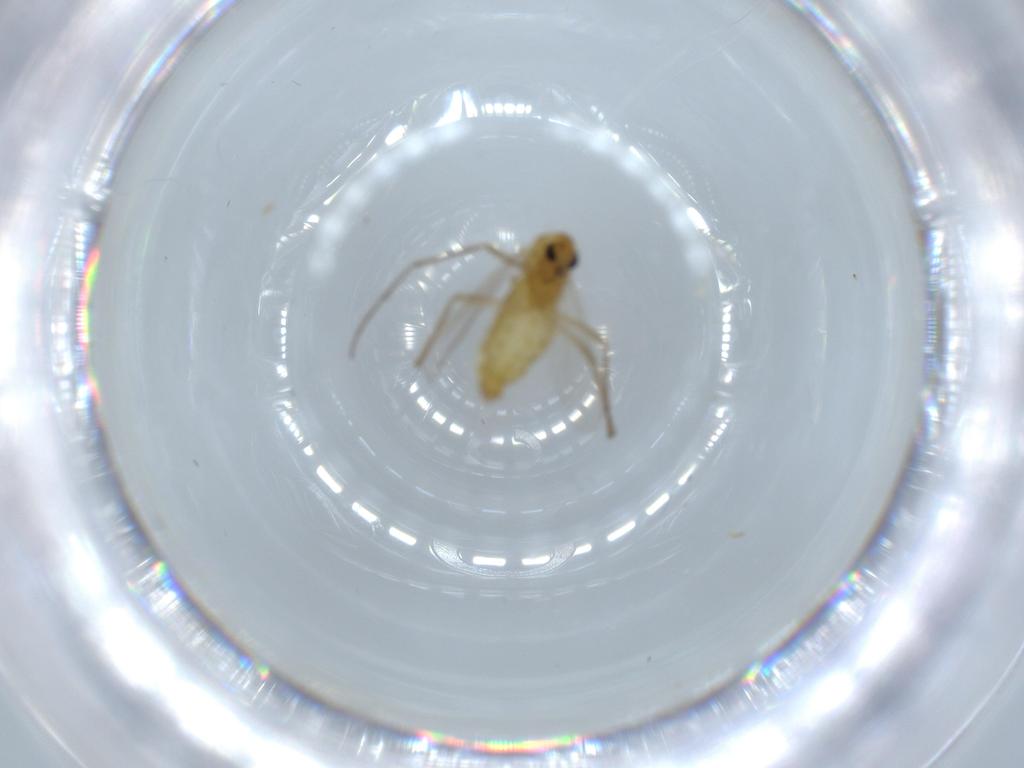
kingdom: Animalia
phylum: Arthropoda
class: Insecta
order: Diptera
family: Chironomidae
